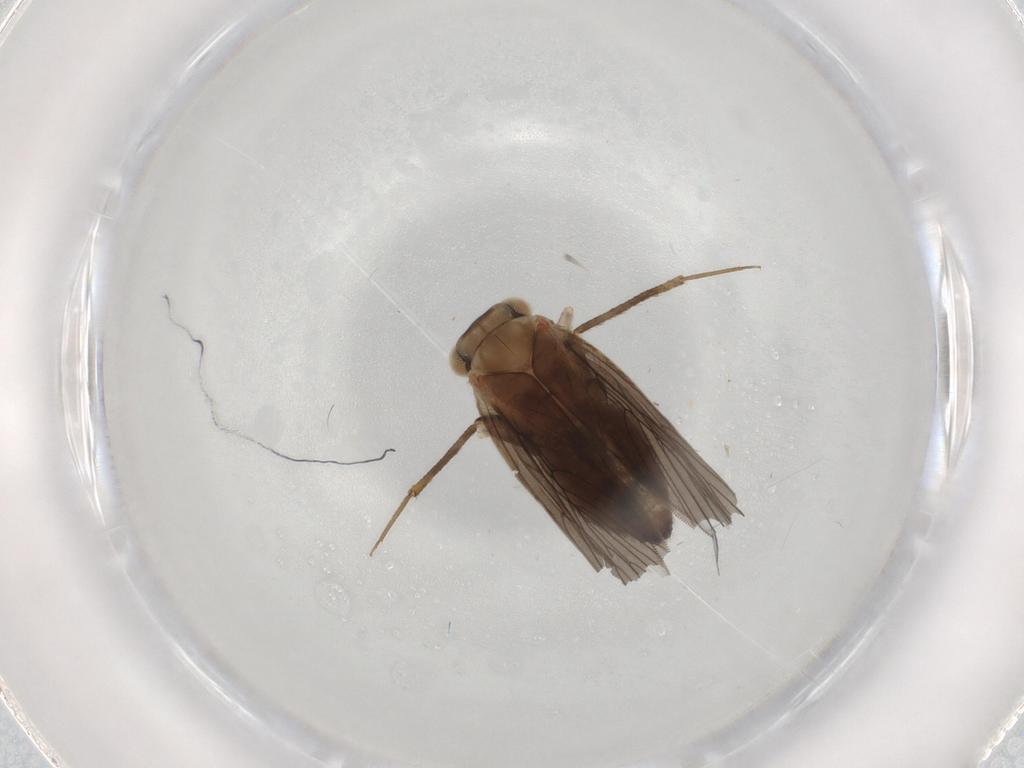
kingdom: Animalia
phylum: Arthropoda
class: Insecta
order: Psocodea
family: Lepidopsocidae
